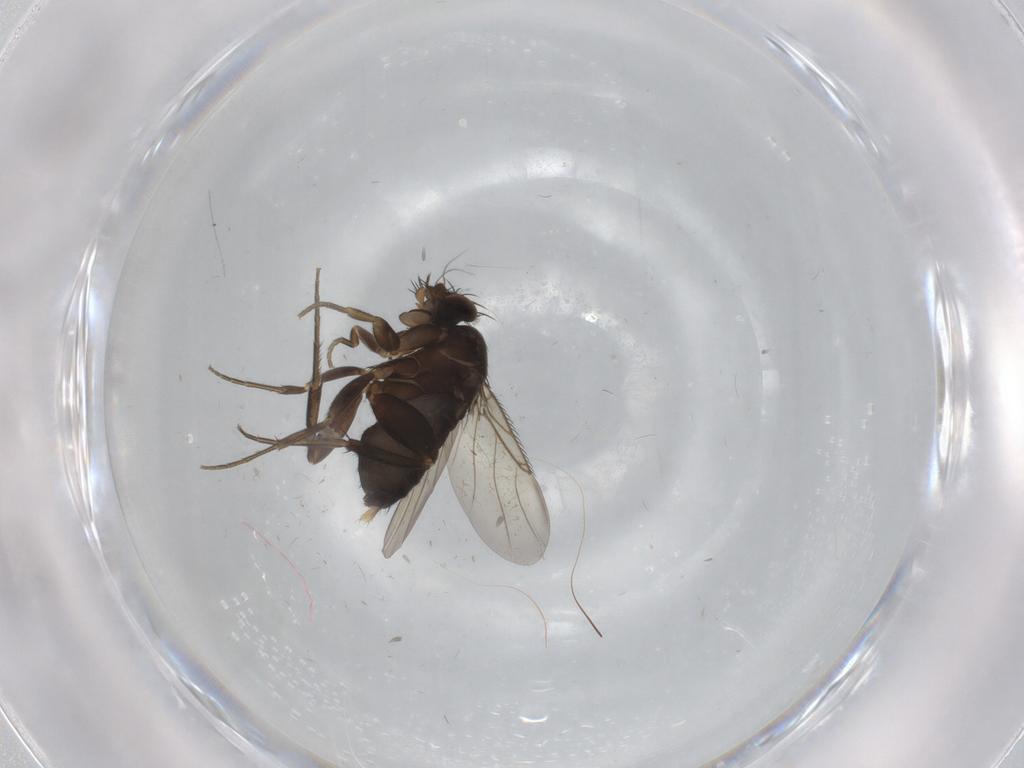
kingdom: Animalia
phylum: Arthropoda
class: Insecta
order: Diptera
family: Phoridae
